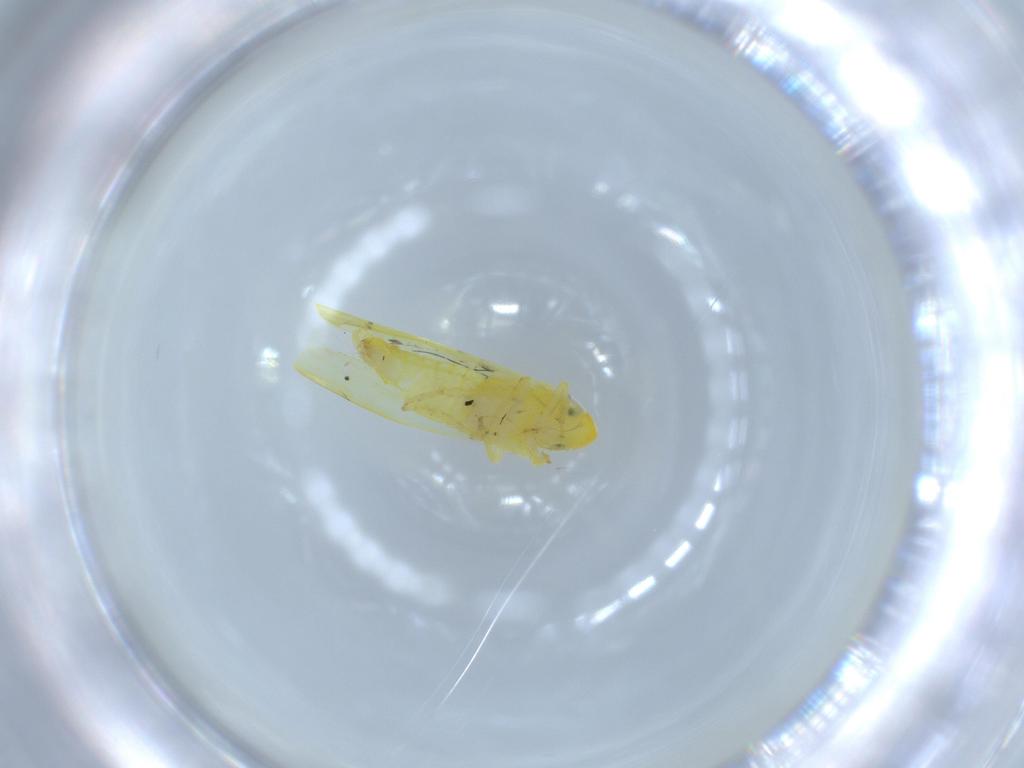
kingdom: Animalia
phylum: Arthropoda
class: Insecta
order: Hemiptera
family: Cicadellidae
